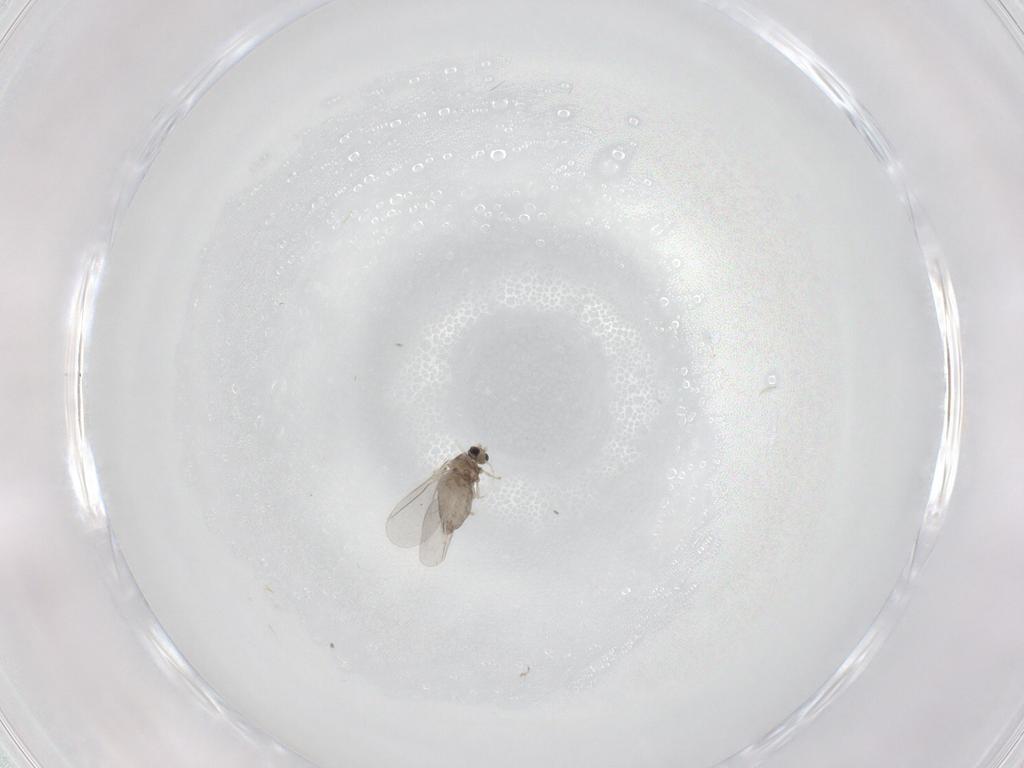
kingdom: Animalia
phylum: Arthropoda
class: Insecta
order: Diptera
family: Cecidomyiidae
